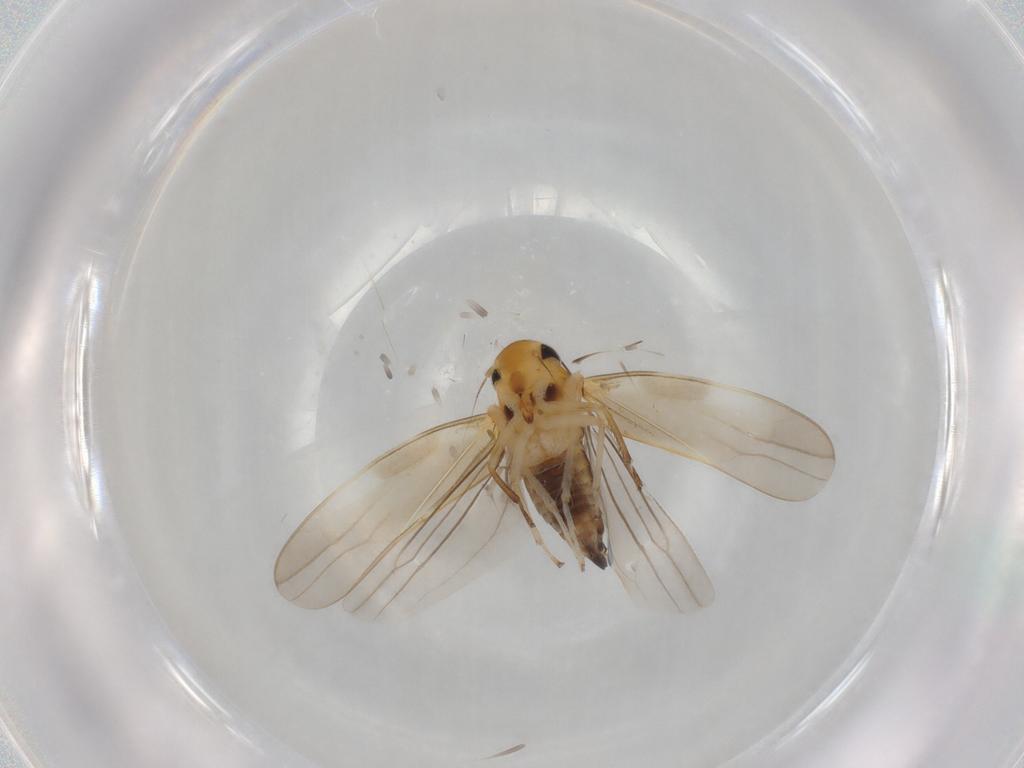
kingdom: Animalia
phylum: Arthropoda
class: Insecta
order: Hemiptera
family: Cicadellidae
